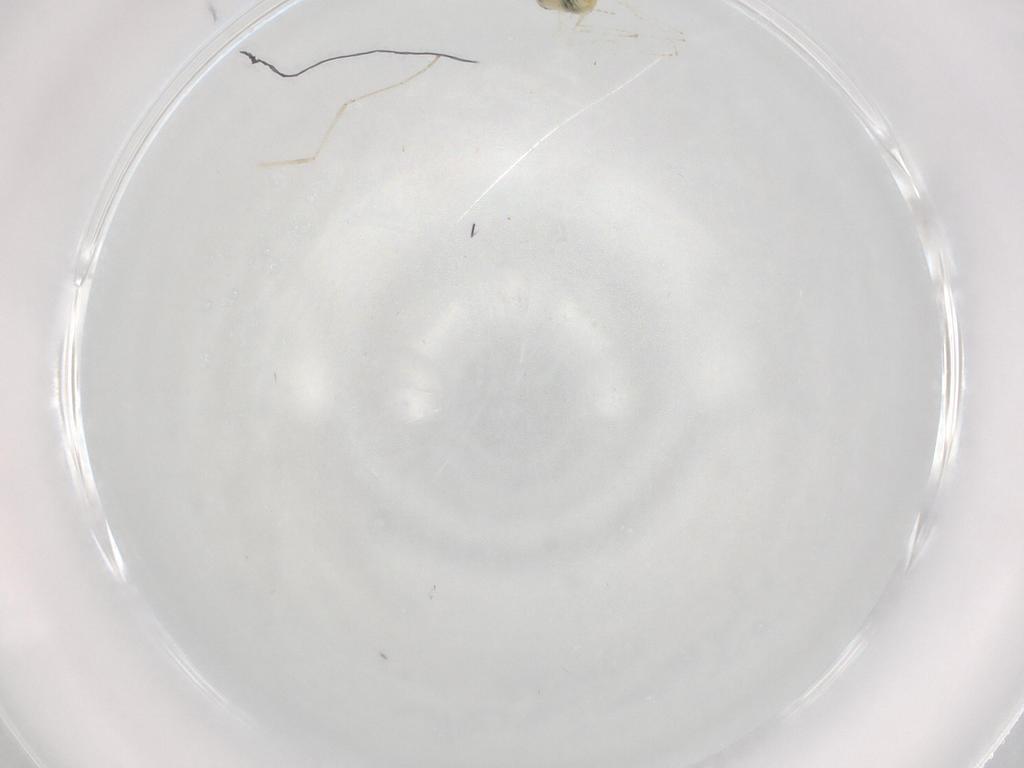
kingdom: Animalia
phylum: Arthropoda
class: Insecta
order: Diptera
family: Cecidomyiidae
